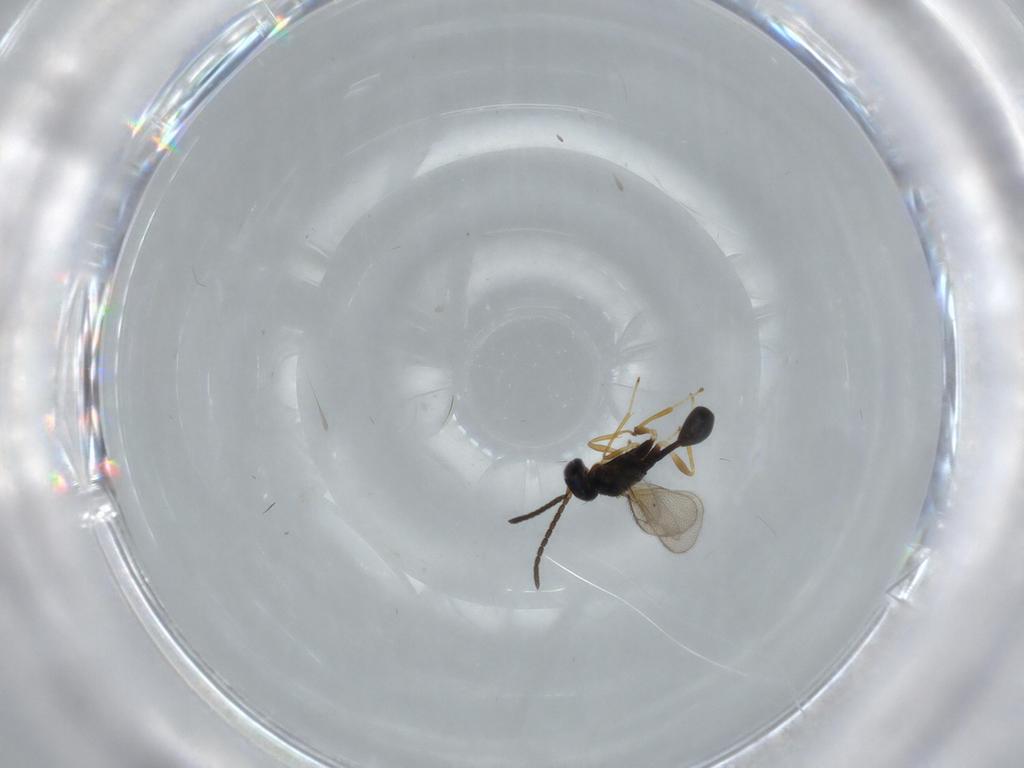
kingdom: Animalia
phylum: Arthropoda
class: Insecta
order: Hymenoptera
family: Diparidae
